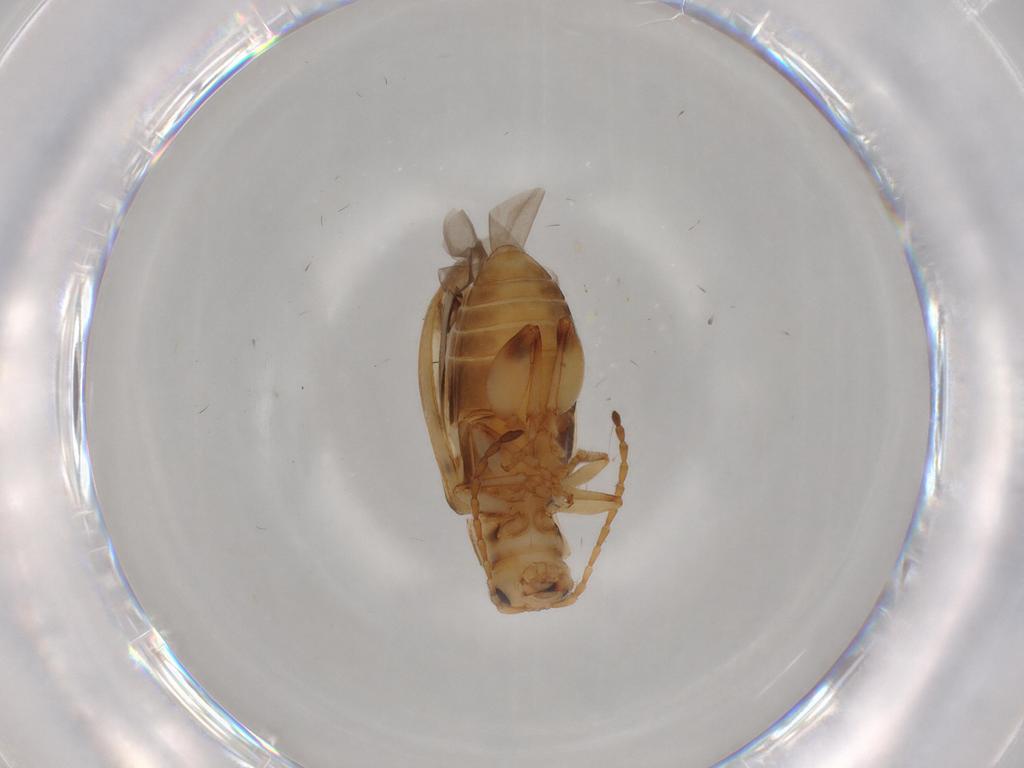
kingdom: Animalia
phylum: Arthropoda
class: Insecta
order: Coleoptera
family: Chrysomelidae
